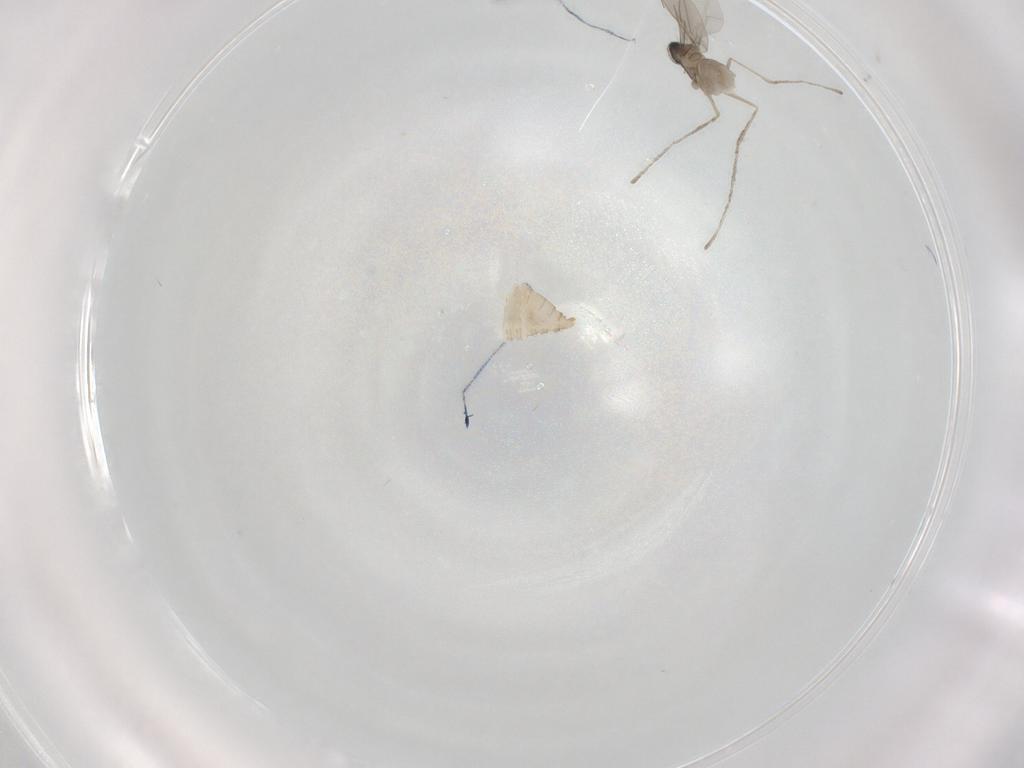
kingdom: Animalia
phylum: Arthropoda
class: Insecta
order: Diptera
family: Cecidomyiidae
